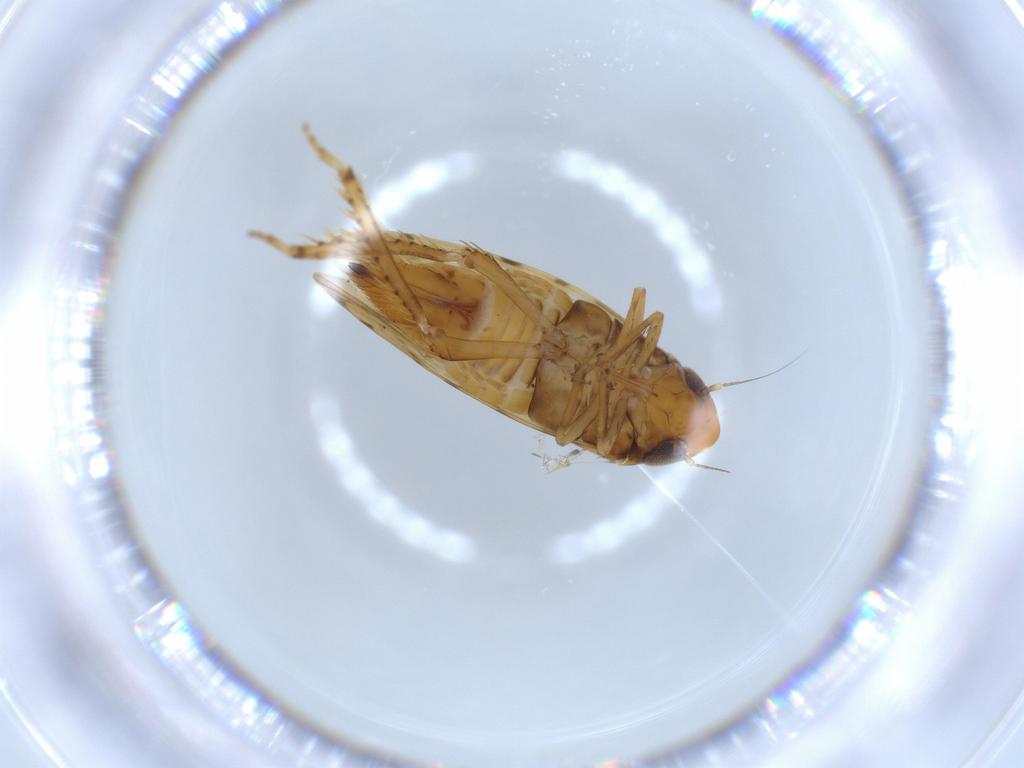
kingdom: Animalia
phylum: Arthropoda
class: Insecta
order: Hemiptera
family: Cicadellidae
